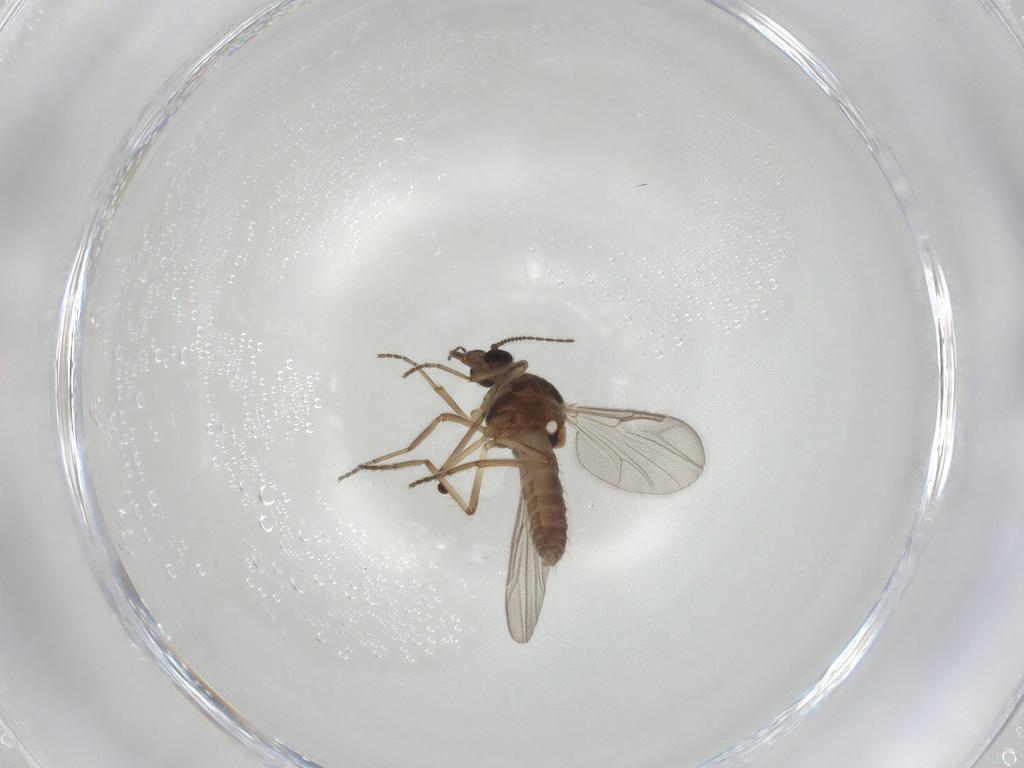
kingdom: Animalia
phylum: Arthropoda
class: Insecta
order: Diptera
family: Ceratopogonidae
